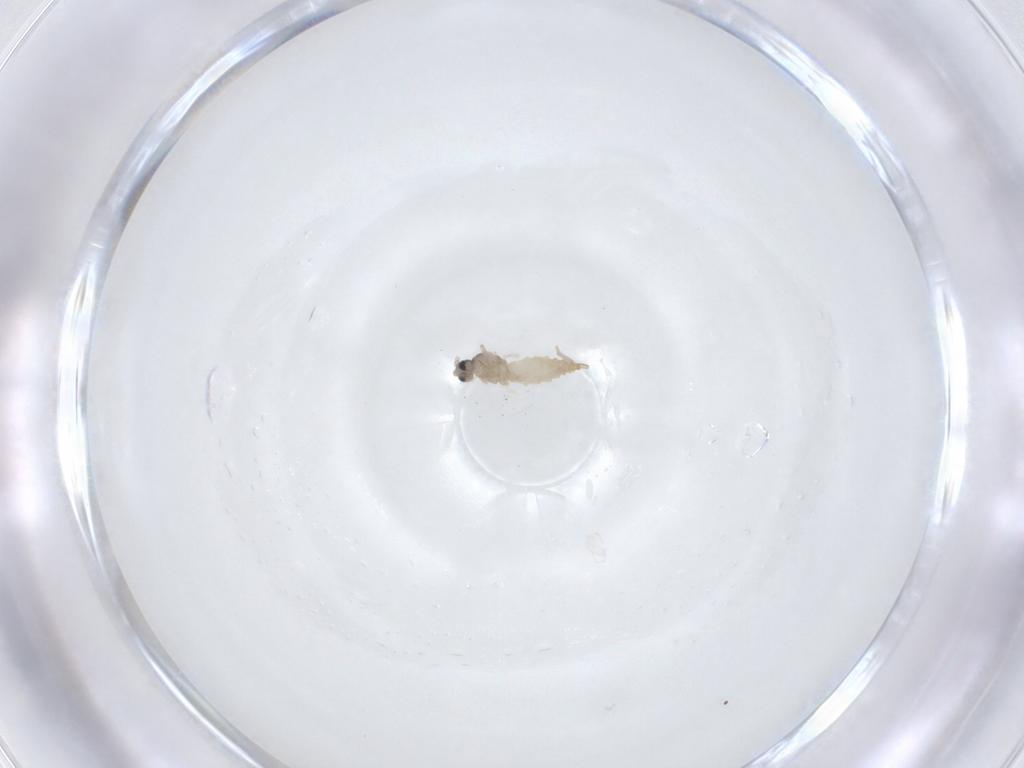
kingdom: Animalia
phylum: Arthropoda
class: Insecta
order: Diptera
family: Cecidomyiidae
